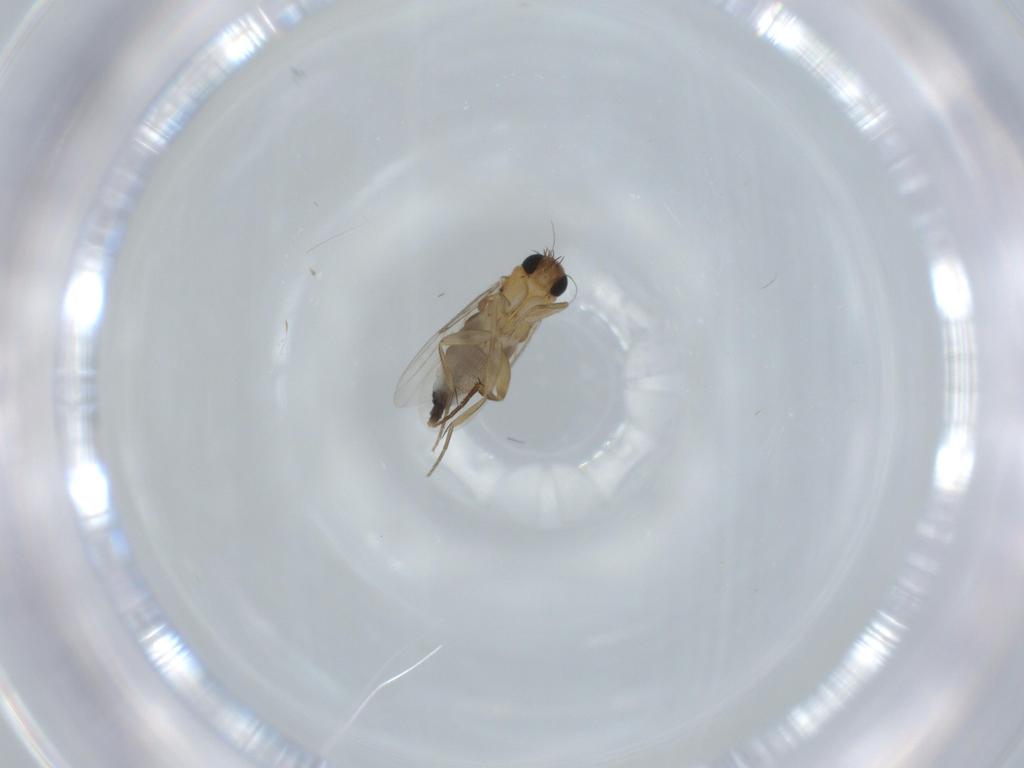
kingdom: Animalia
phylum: Arthropoda
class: Insecta
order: Diptera
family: Phoridae
